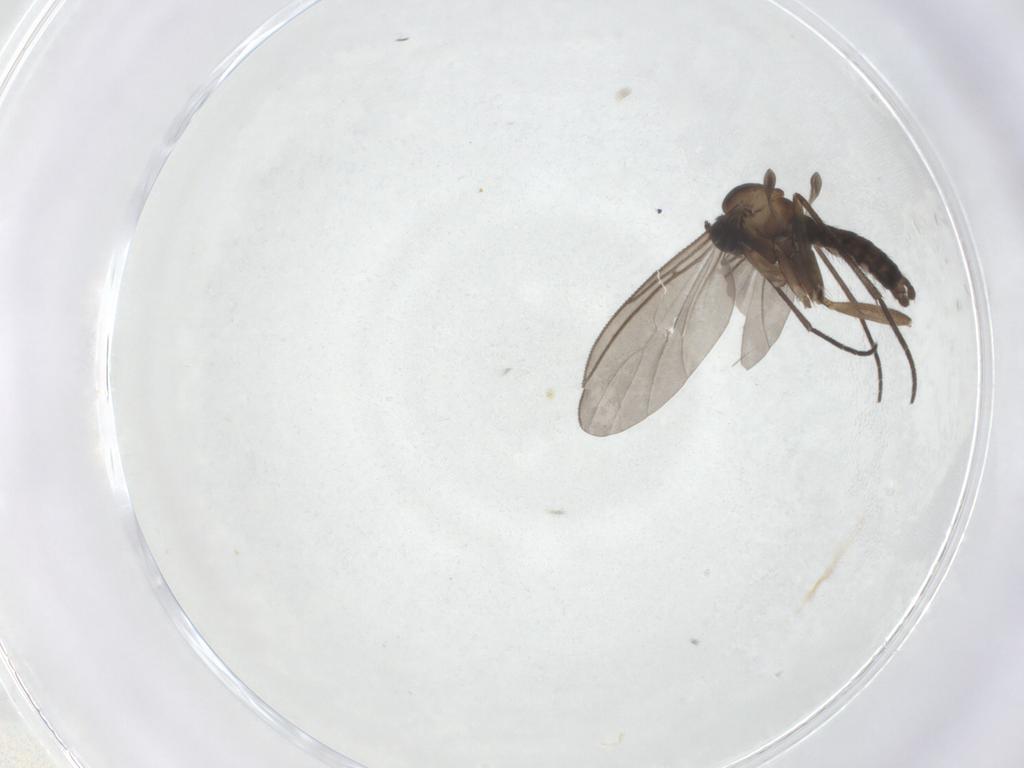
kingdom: Animalia
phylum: Arthropoda
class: Insecta
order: Diptera
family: Sciaridae
